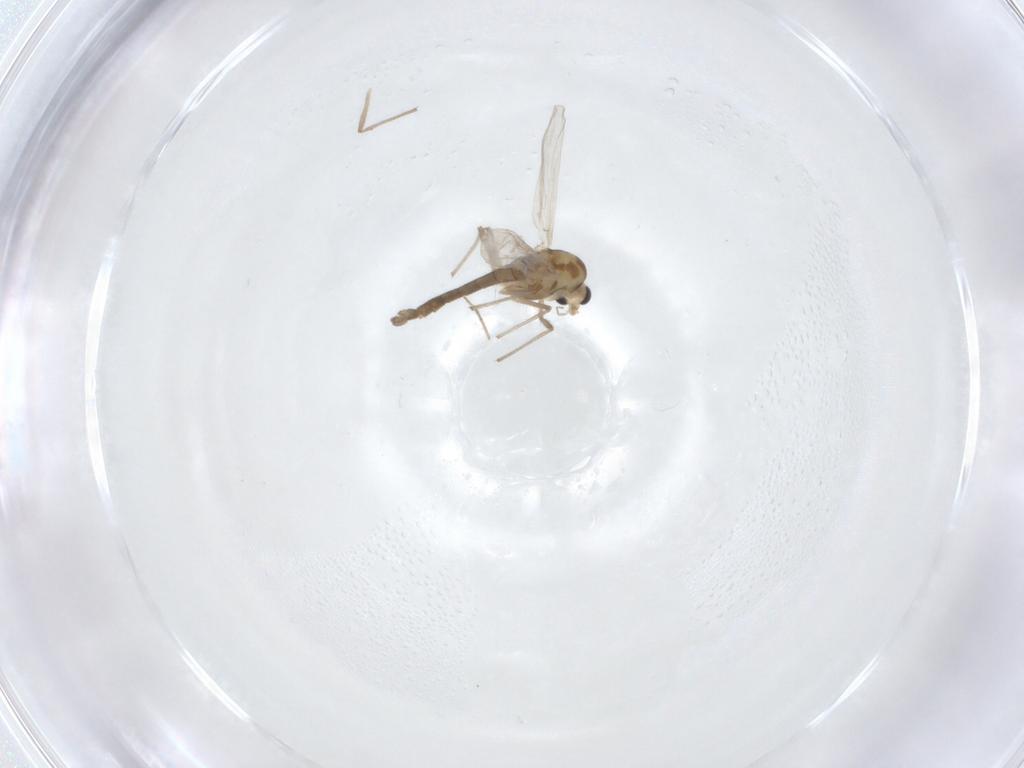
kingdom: Animalia
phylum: Arthropoda
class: Insecta
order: Diptera
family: Chironomidae
